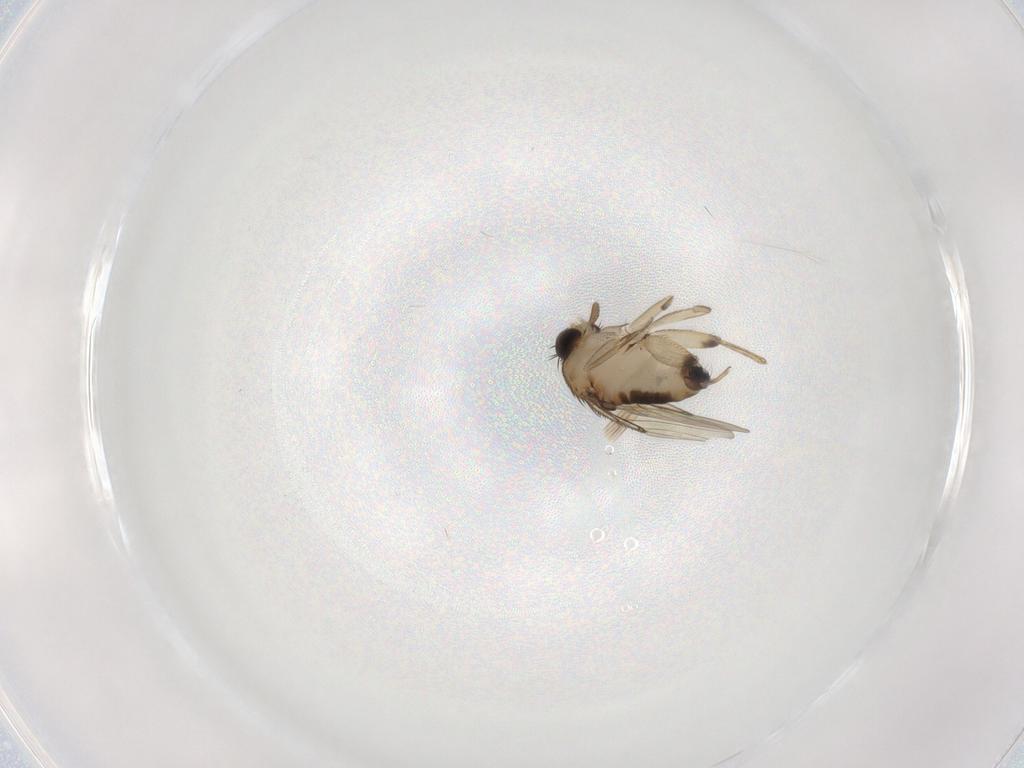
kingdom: Animalia
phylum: Arthropoda
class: Insecta
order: Diptera
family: Phoridae
